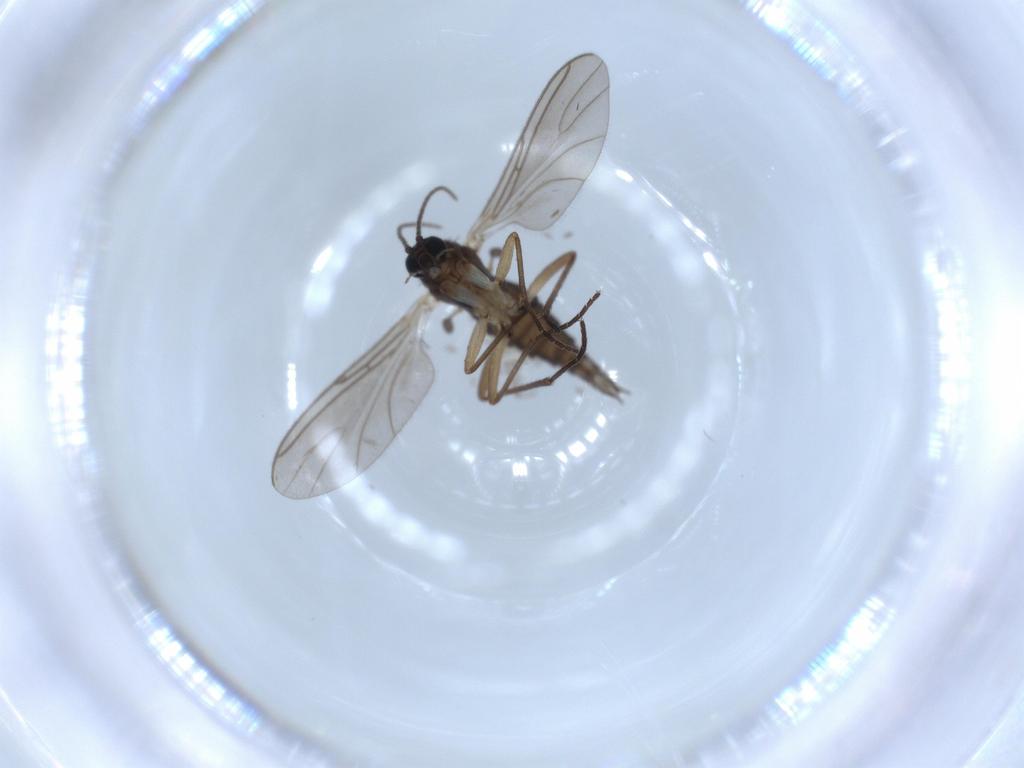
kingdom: Animalia
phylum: Arthropoda
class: Insecta
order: Diptera
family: Sciaridae
